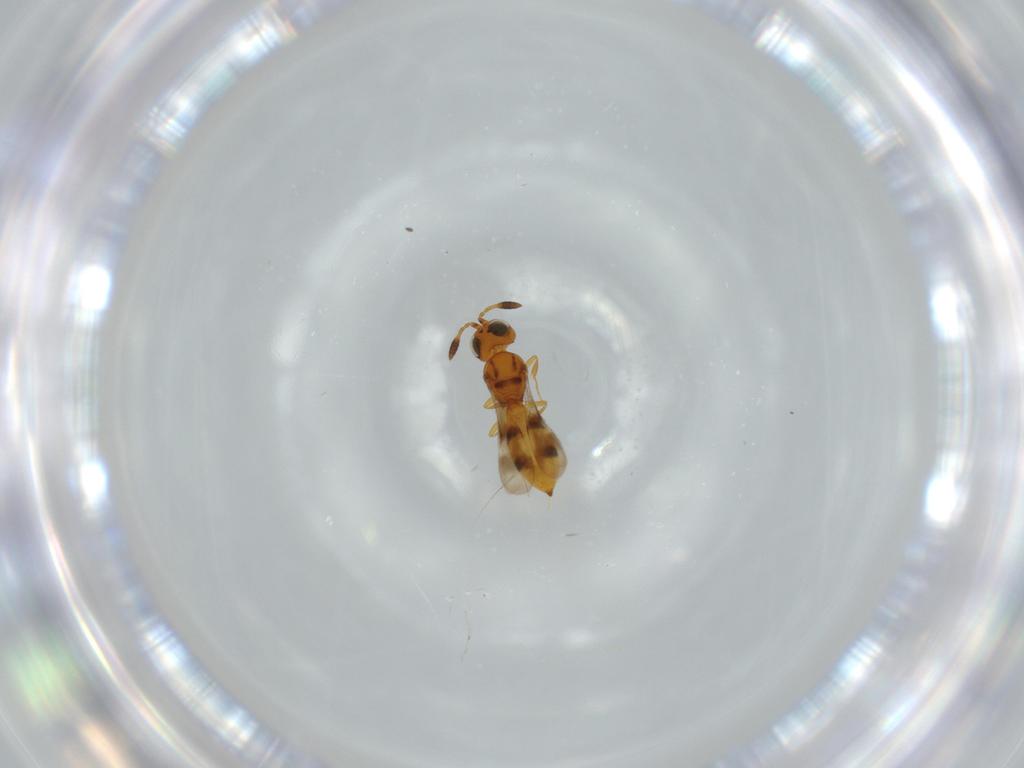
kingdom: Animalia
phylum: Arthropoda
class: Insecta
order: Hymenoptera
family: Scelionidae
